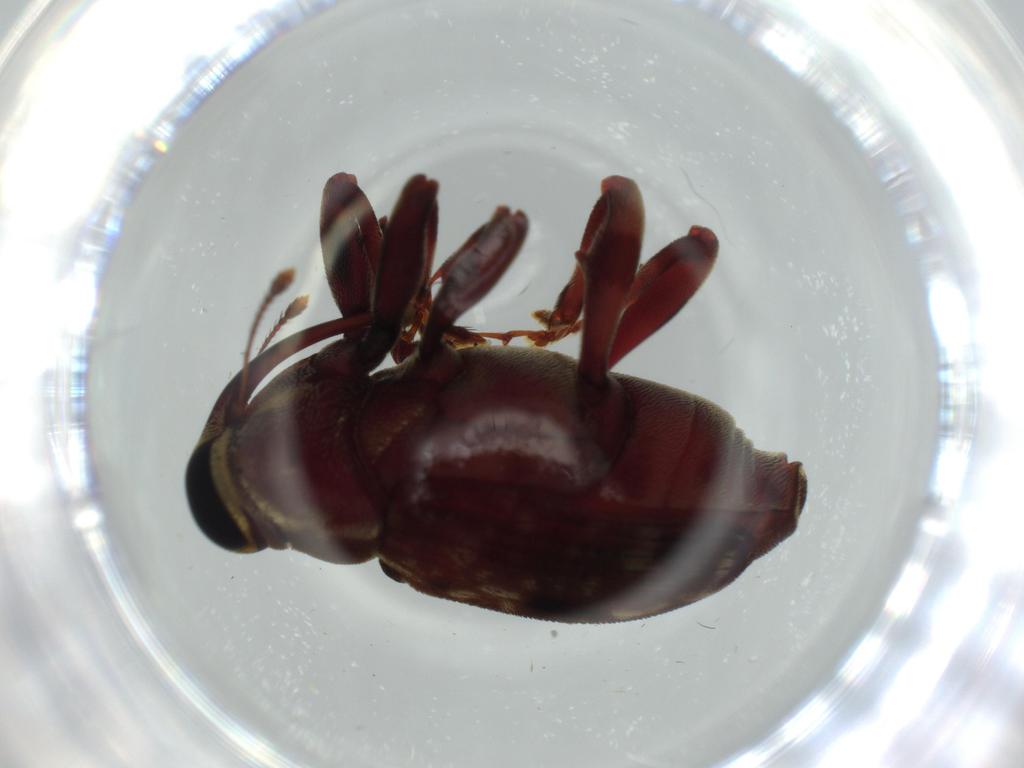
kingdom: Animalia
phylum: Arthropoda
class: Insecta
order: Coleoptera
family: Curculionidae
